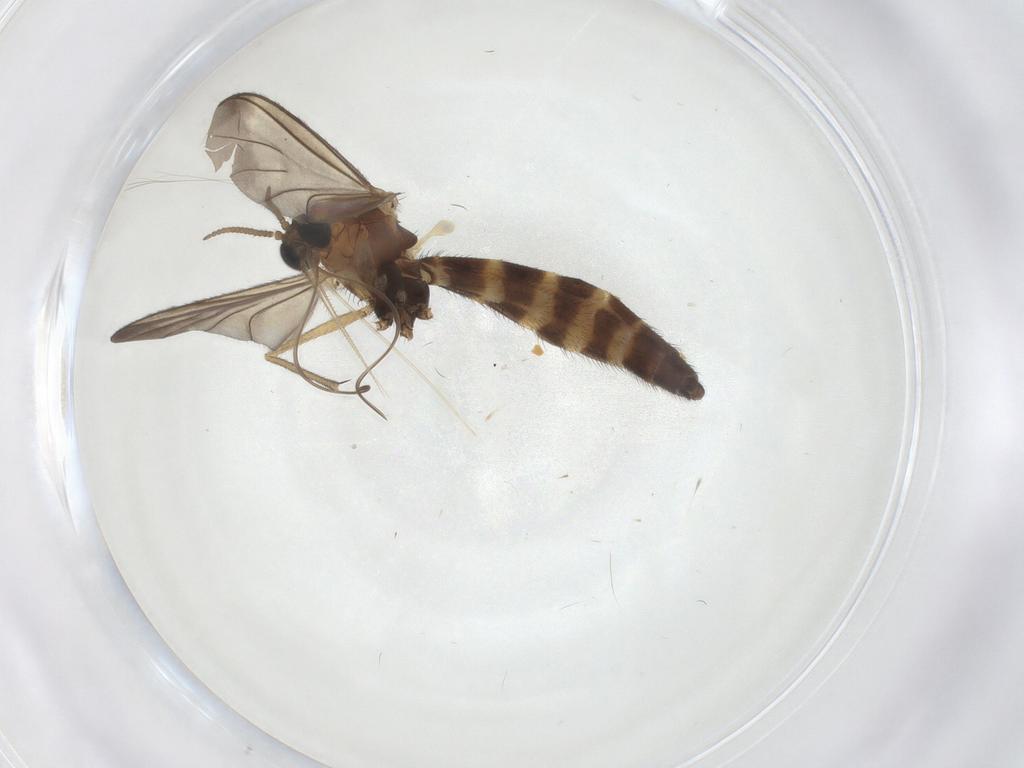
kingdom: Animalia
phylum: Arthropoda
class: Insecta
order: Diptera
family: Keroplatidae
